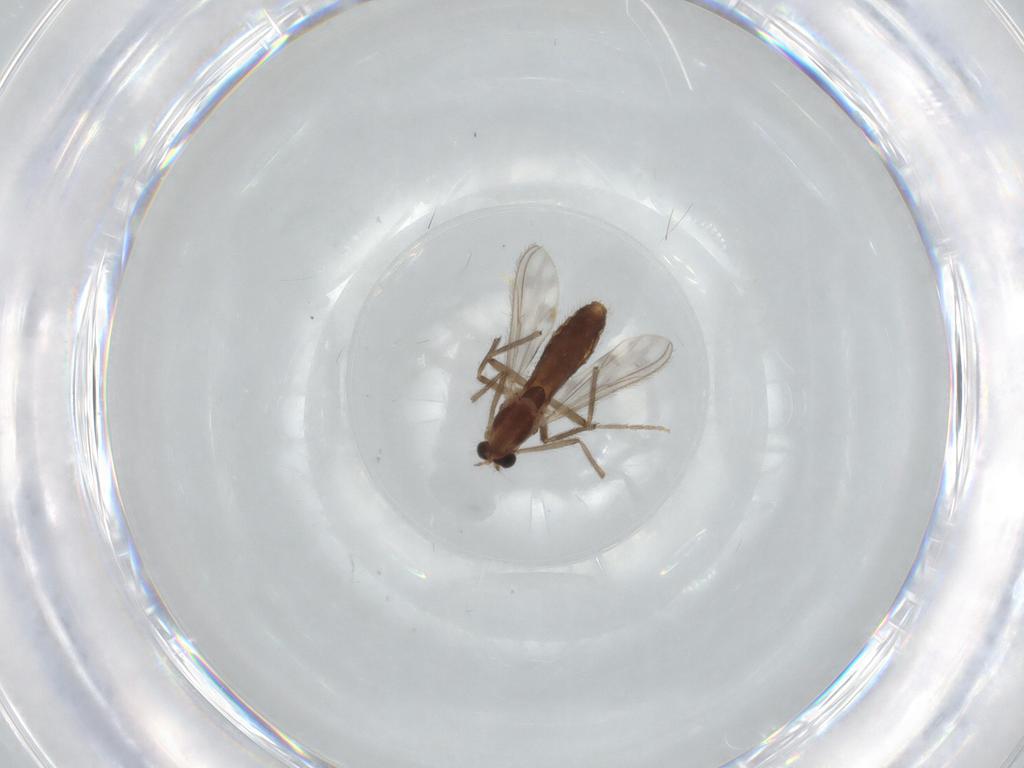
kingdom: Animalia
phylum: Arthropoda
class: Insecta
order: Diptera
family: Chironomidae
